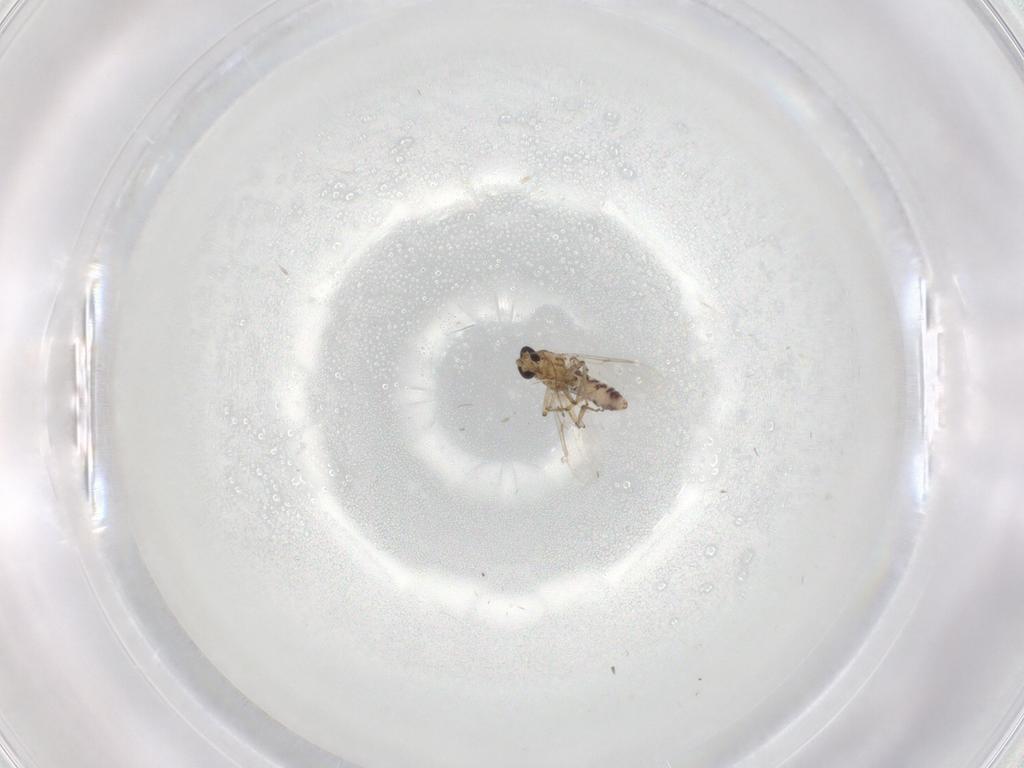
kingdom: Animalia
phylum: Arthropoda
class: Insecta
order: Diptera
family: Ceratopogonidae
